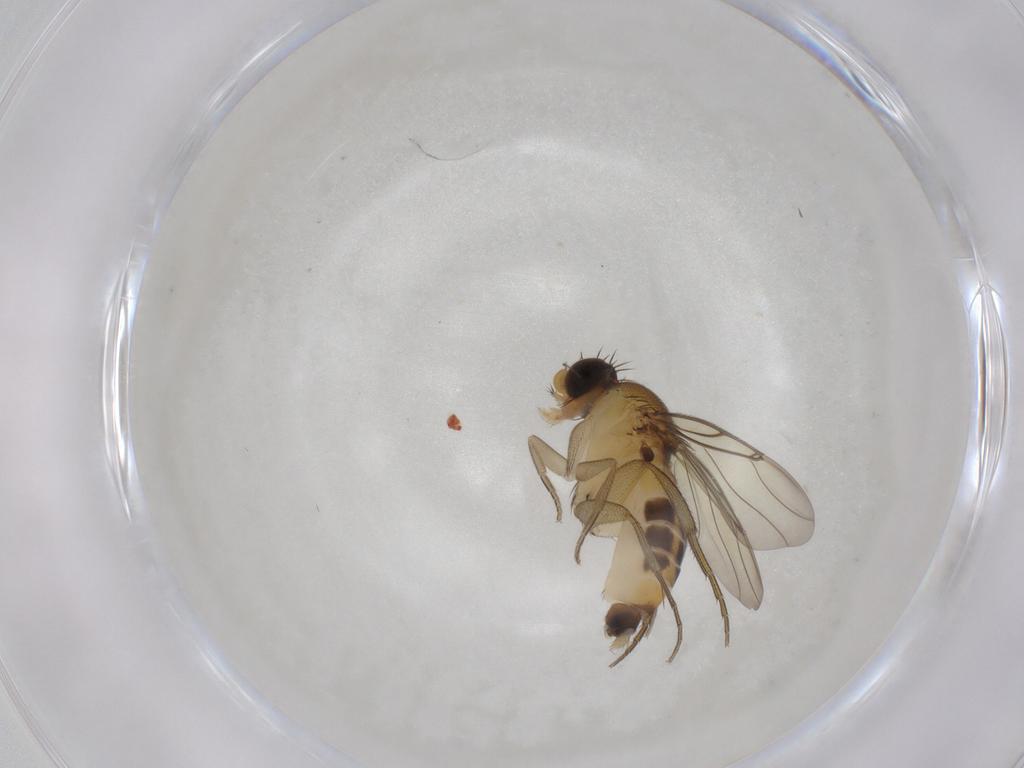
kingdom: Animalia
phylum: Arthropoda
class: Insecta
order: Diptera
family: Phoridae
